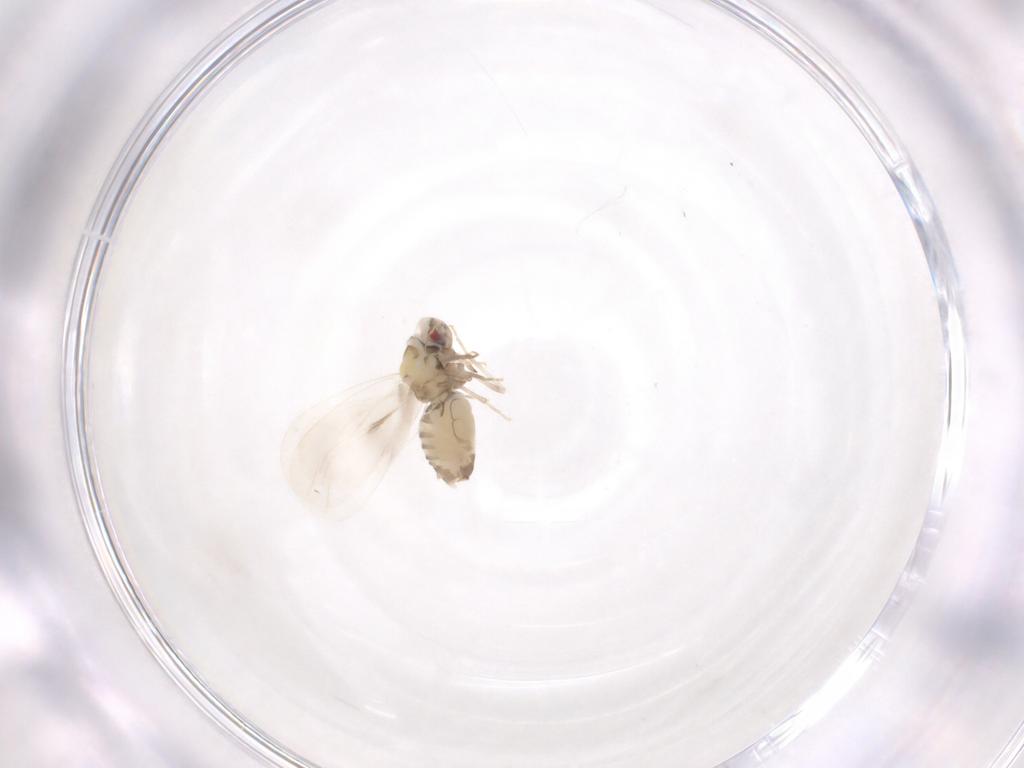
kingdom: Animalia
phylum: Arthropoda
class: Insecta
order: Hemiptera
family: Aleyrodidae
